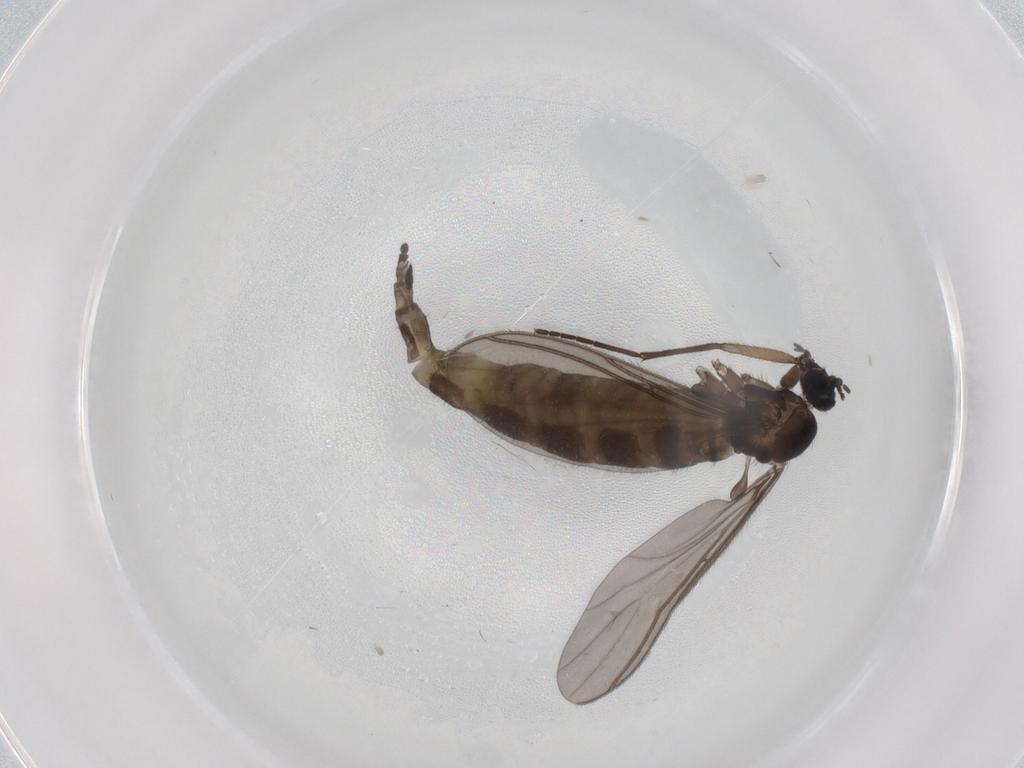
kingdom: Animalia
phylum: Arthropoda
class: Insecta
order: Diptera
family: Sciaridae
